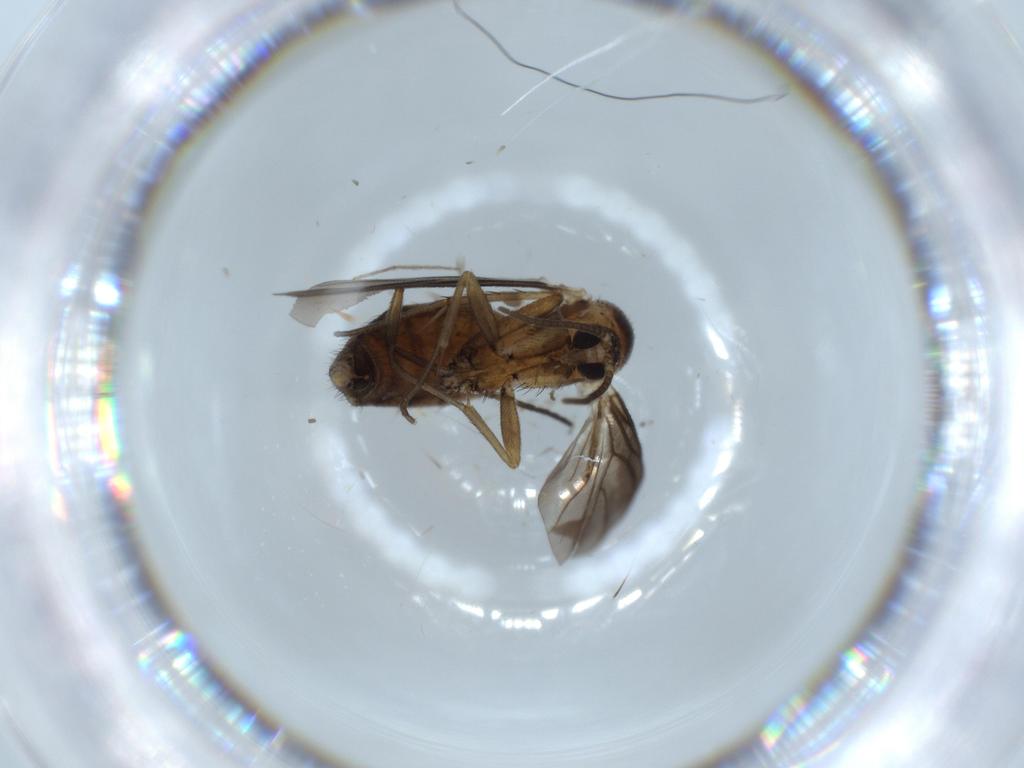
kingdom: Animalia
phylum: Arthropoda
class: Insecta
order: Diptera
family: Mycetophilidae
